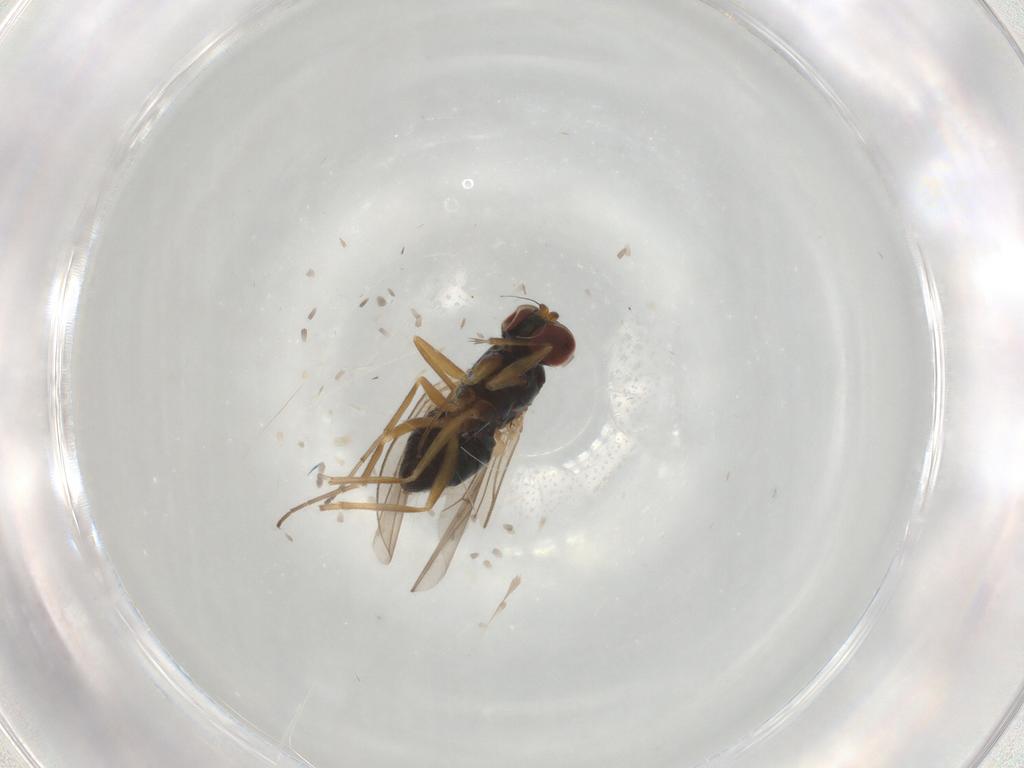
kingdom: Animalia
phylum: Arthropoda
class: Insecta
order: Diptera
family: Dolichopodidae
